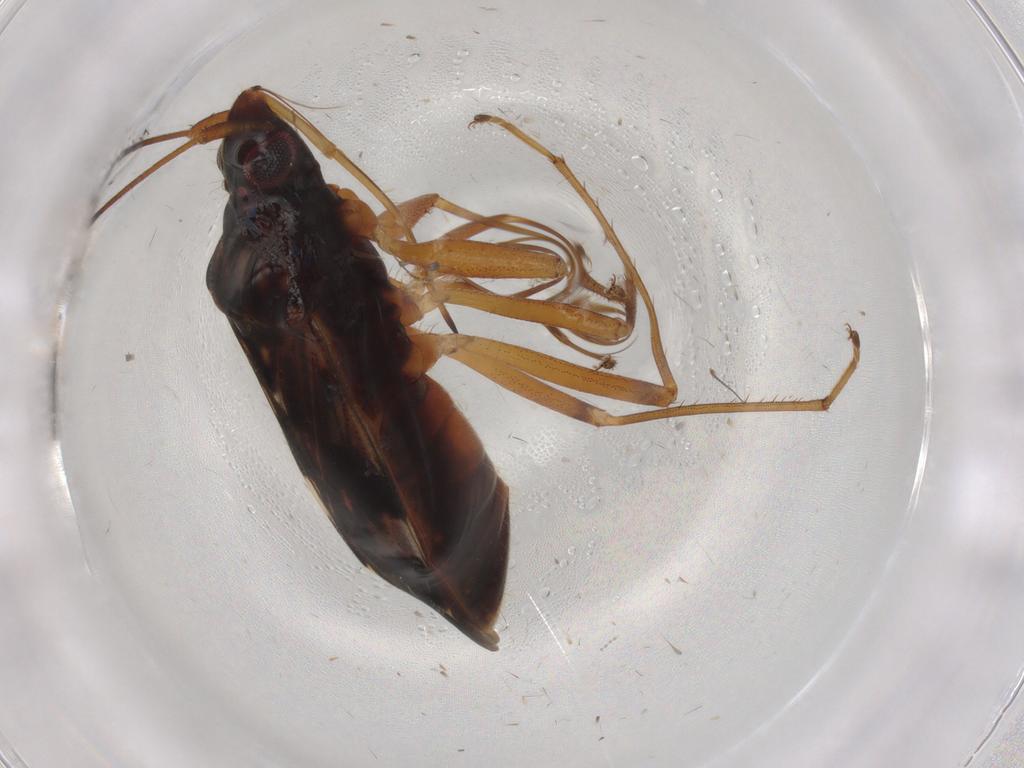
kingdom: Animalia
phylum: Arthropoda
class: Insecta
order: Hemiptera
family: Rhyparochromidae
